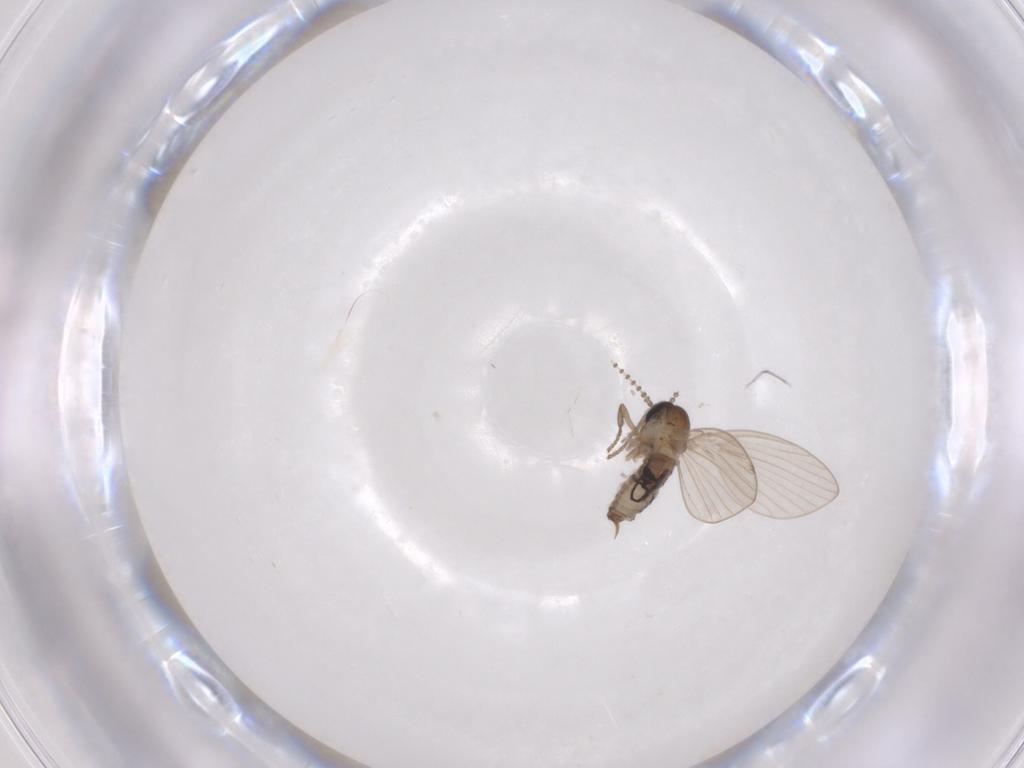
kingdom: Animalia
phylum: Arthropoda
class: Insecta
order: Diptera
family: Psychodidae
